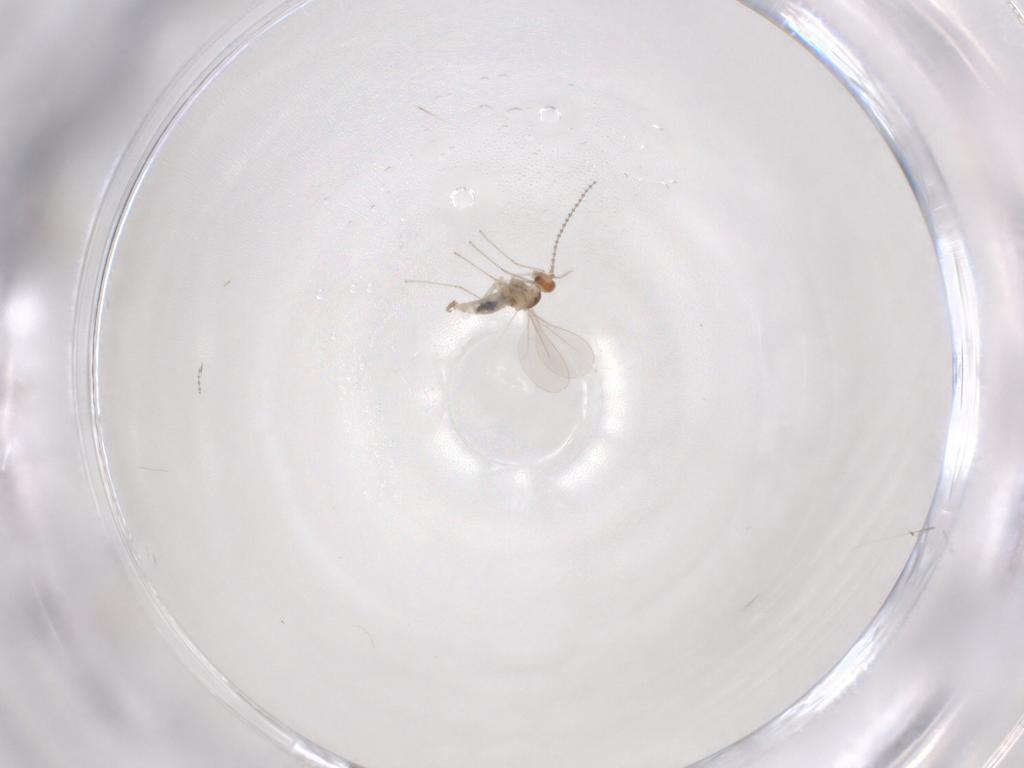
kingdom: Animalia
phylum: Arthropoda
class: Insecta
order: Diptera
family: Cecidomyiidae
